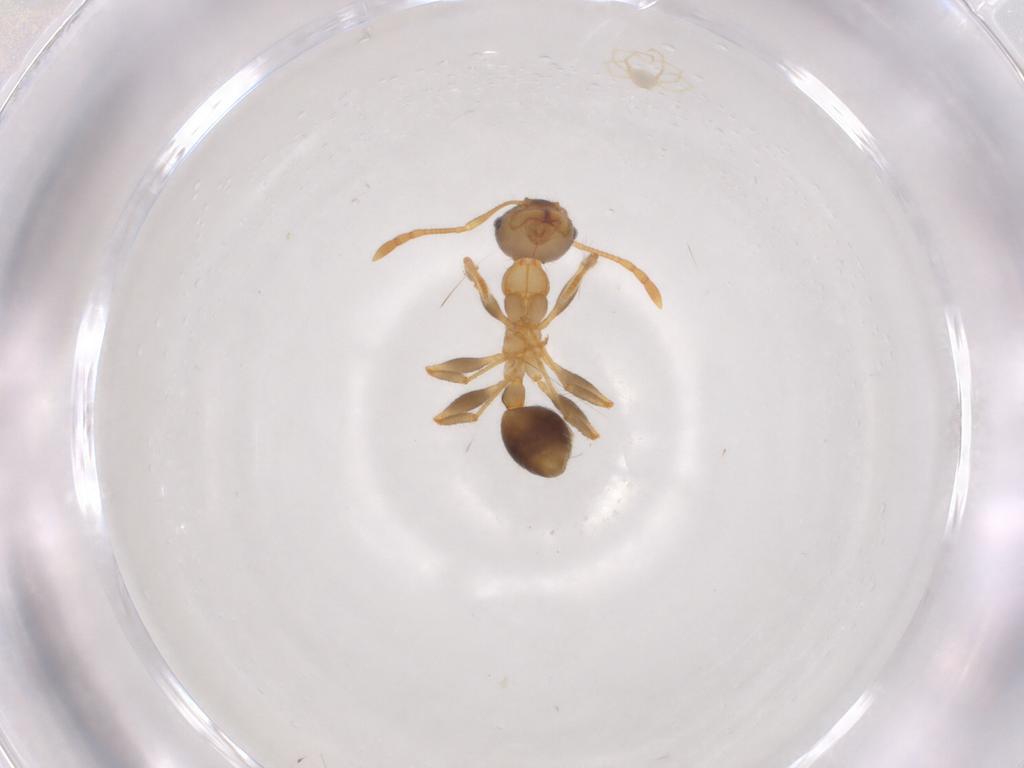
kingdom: Animalia
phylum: Arthropoda
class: Insecta
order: Hymenoptera
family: Formicidae
